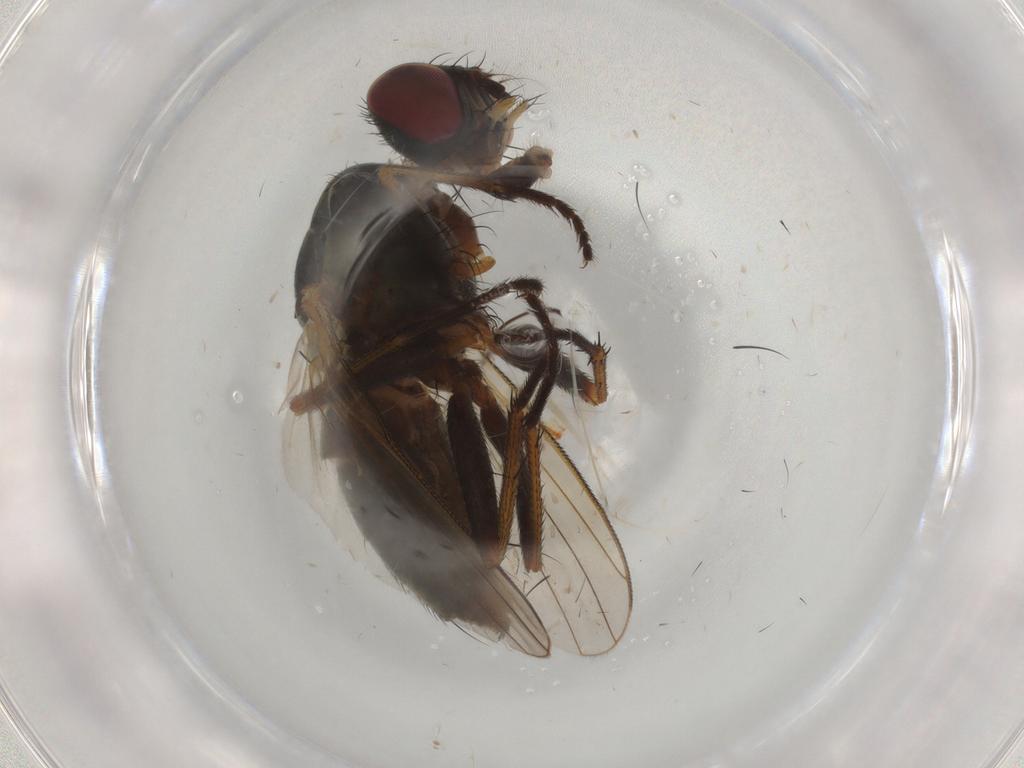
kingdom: Animalia
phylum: Arthropoda
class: Insecta
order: Diptera
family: Muscidae
